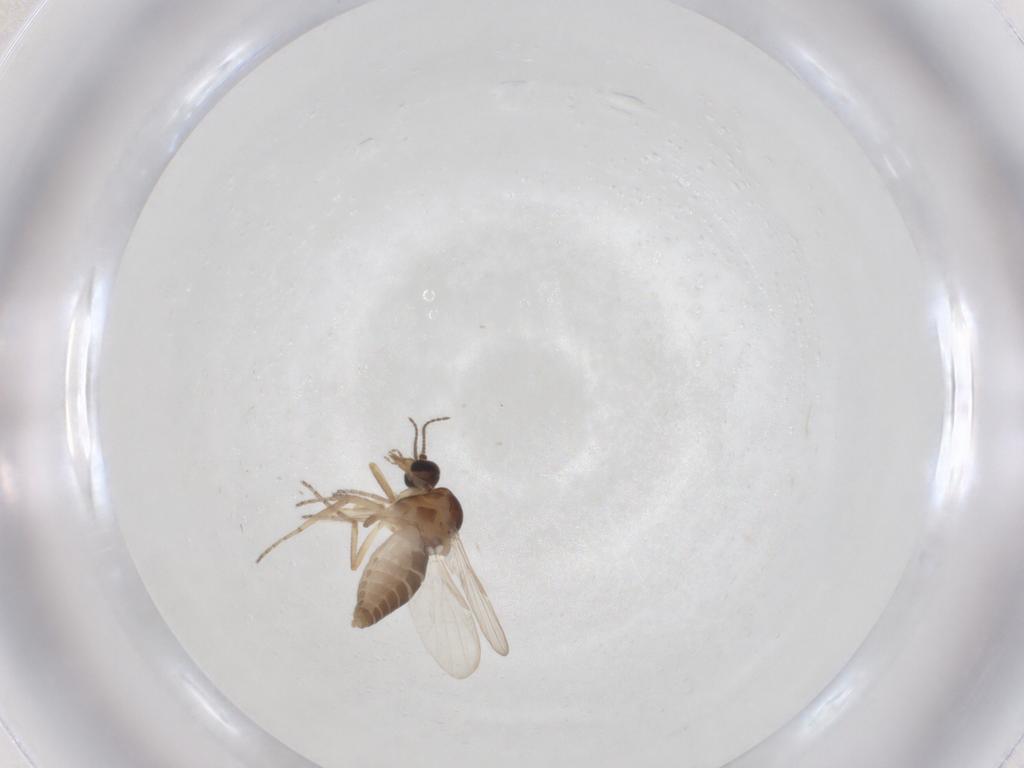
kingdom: Animalia
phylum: Arthropoda
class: Insecta
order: Diptera
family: Ceratopogonidae
